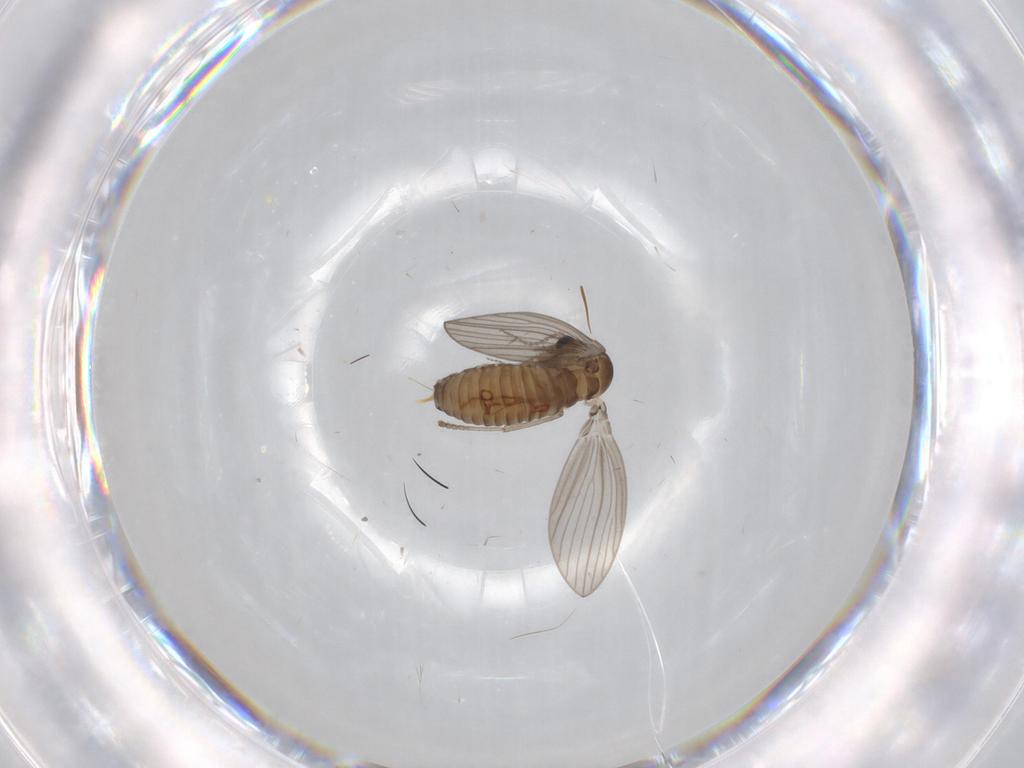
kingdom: Animalia
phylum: Arthropoda
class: Insecta
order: Diptera
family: Psychodidae
